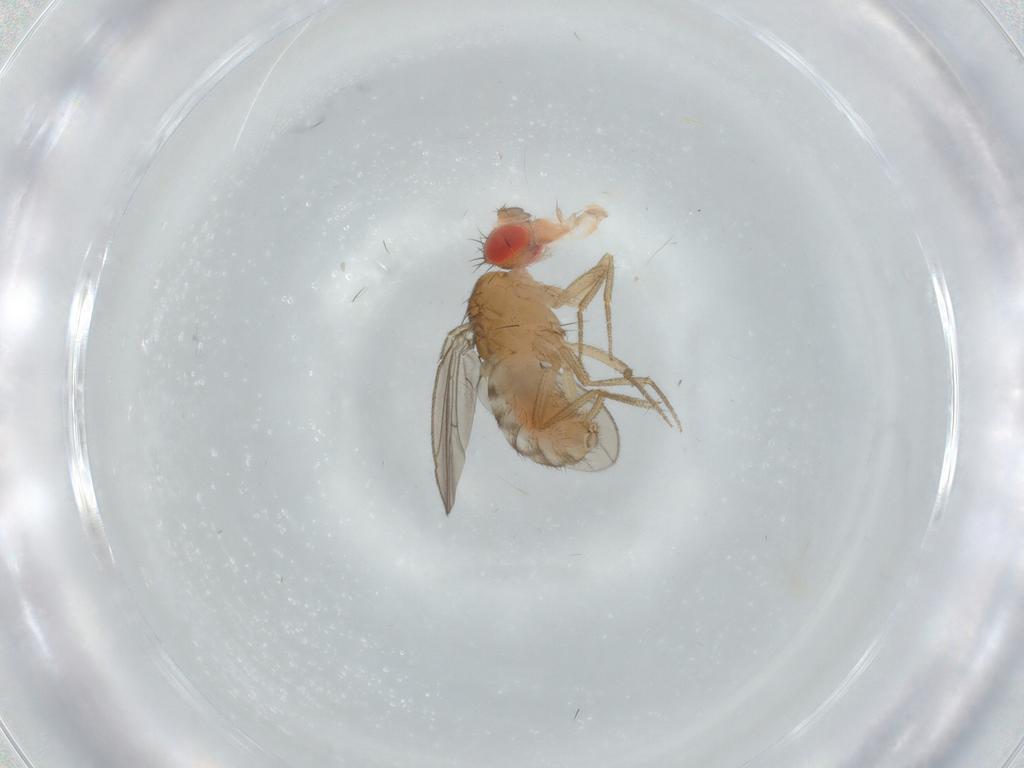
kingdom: Animalia
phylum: Arthropoda
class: Insecta
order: Diptera
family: Drosophilidae
